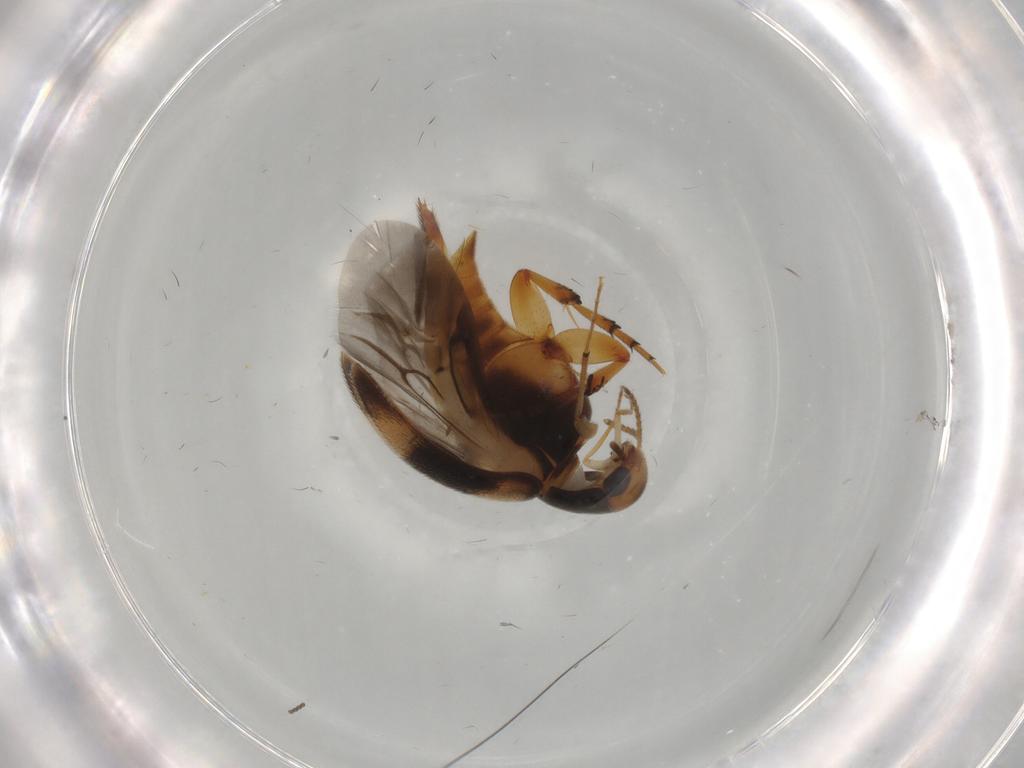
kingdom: Animalia
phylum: Arthropoda
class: Insecta
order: Coleoptera
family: Mordellidae
